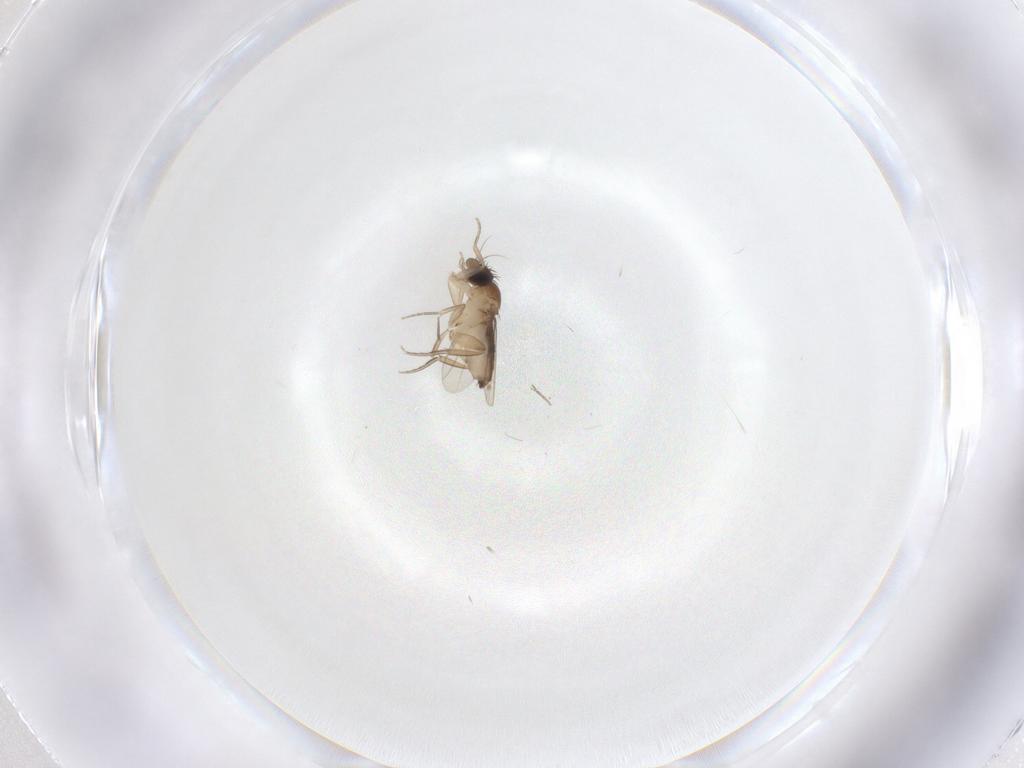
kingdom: Animalia
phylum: Arthropoda
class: Insecta
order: Diptera
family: Phoridae
